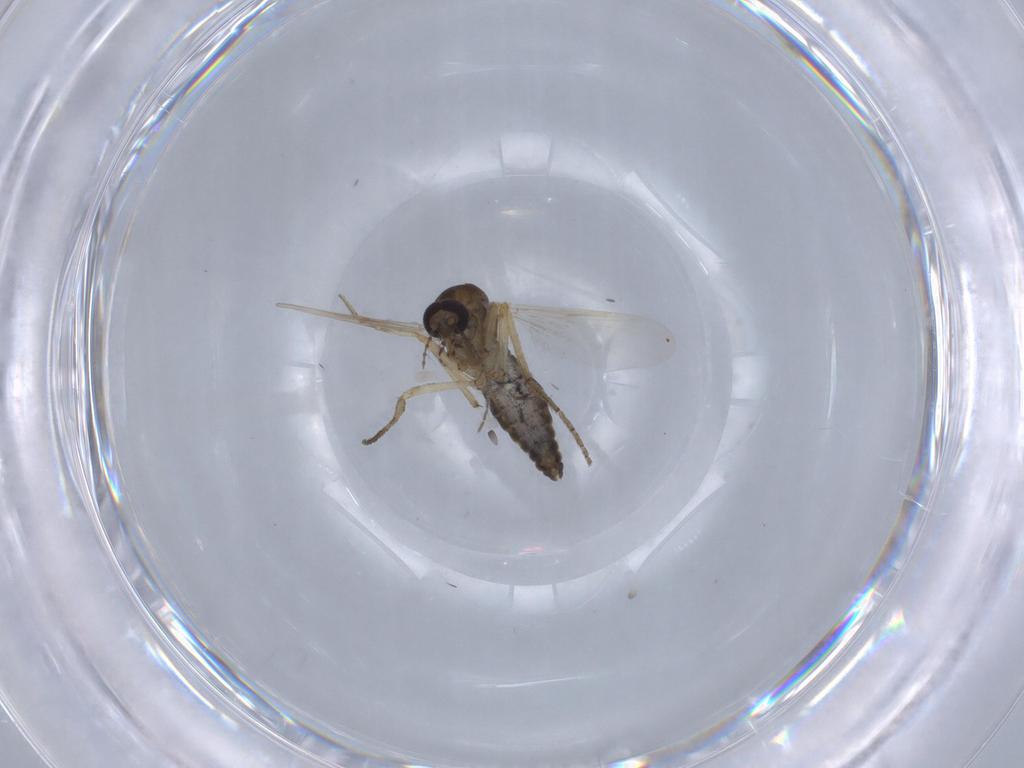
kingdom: Animalia
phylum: Arthropoda
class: Insecta
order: Diptera
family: Ceratopogonidae
